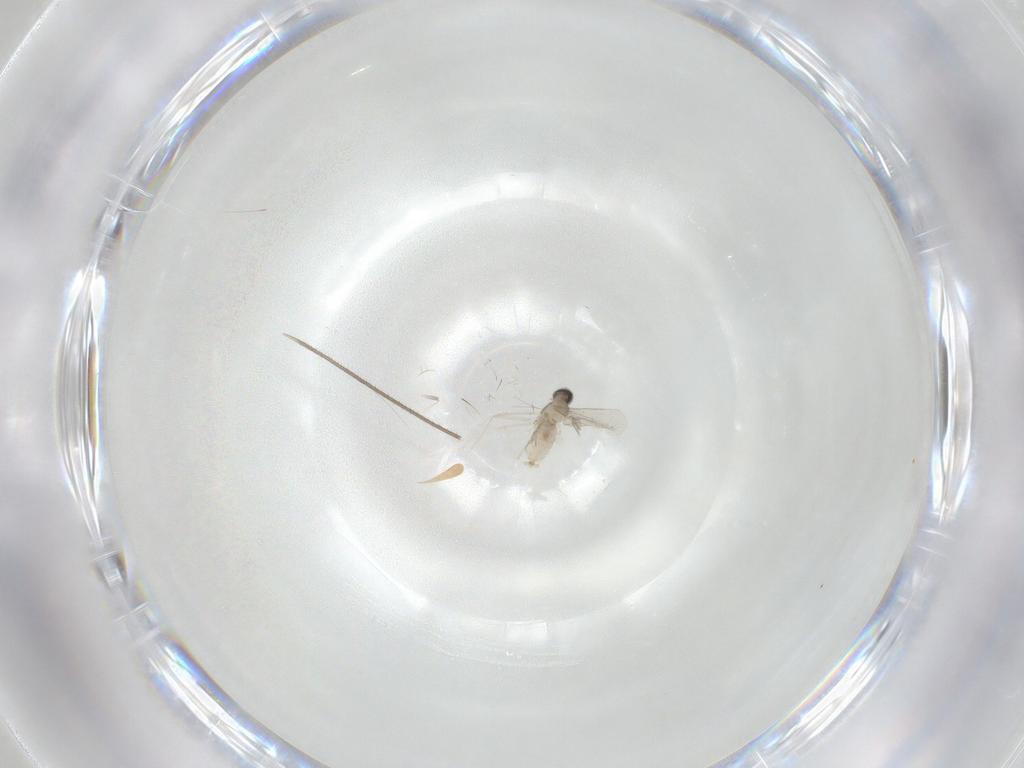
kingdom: Animalia
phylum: Arthropoda
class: Insecta
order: Diptera
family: Cecidomyiidae
